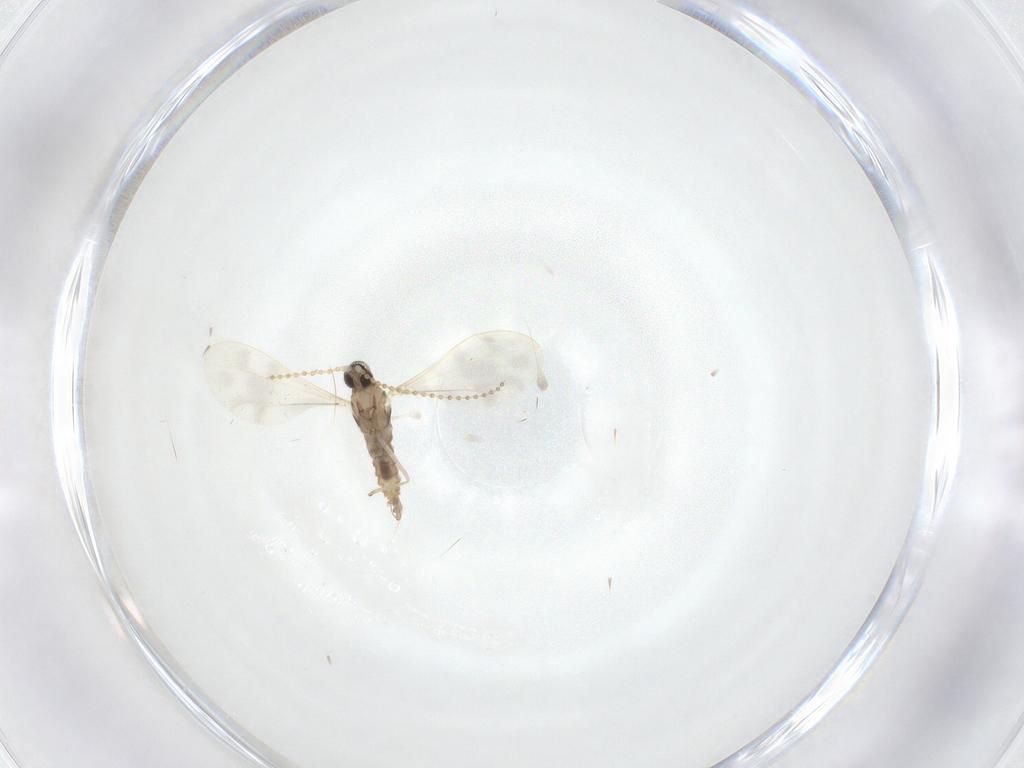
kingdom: Animalia
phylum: Arthropoda
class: Insecta
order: Diptera
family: Cecidomyiidae
